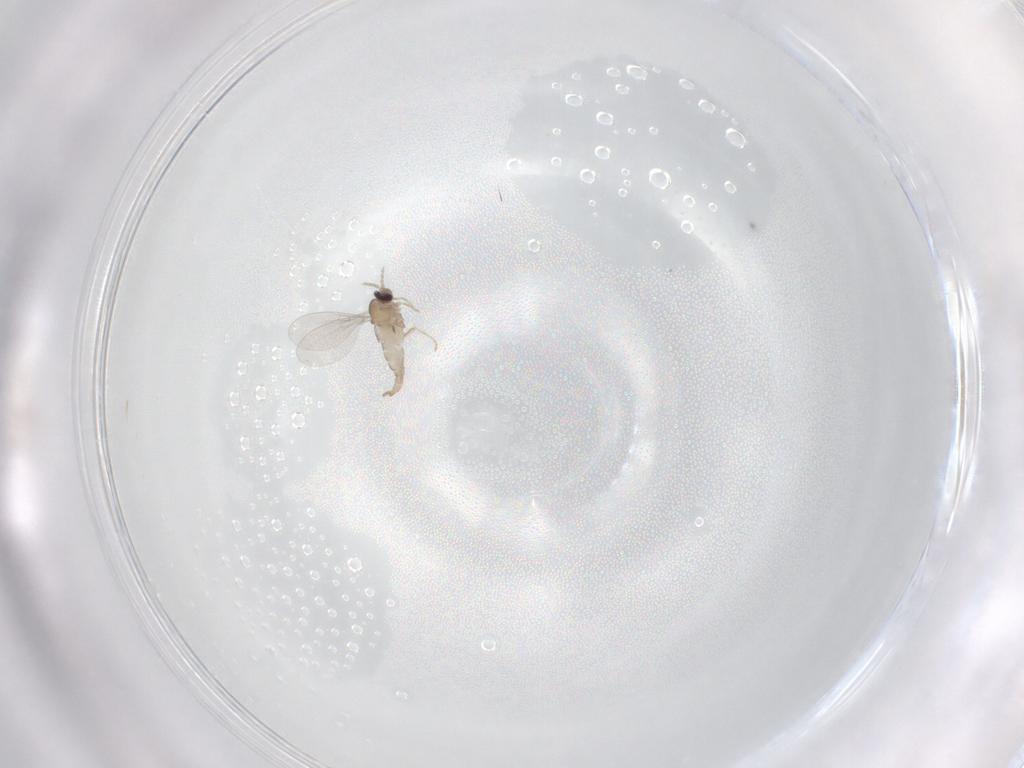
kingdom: Animalia
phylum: Arthropoda
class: Insecta
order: Diptera
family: Cecidomyiidae
